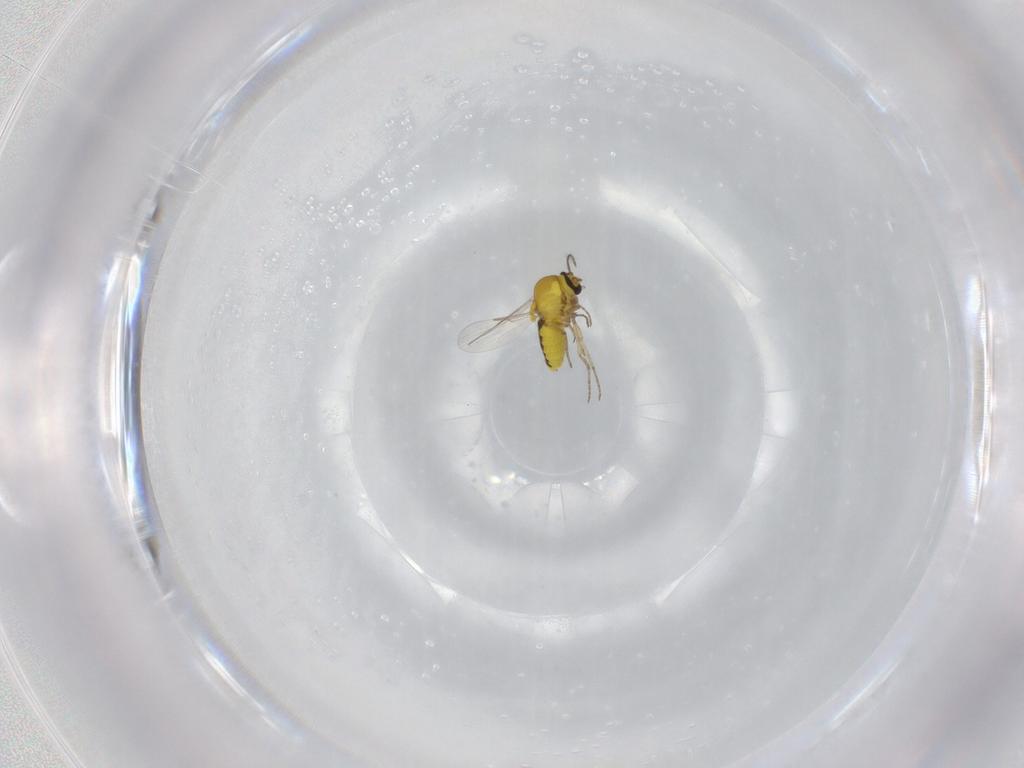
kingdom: Animalia
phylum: Arthropoda
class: Insecta
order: Diptera
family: Ceratopogonidae
